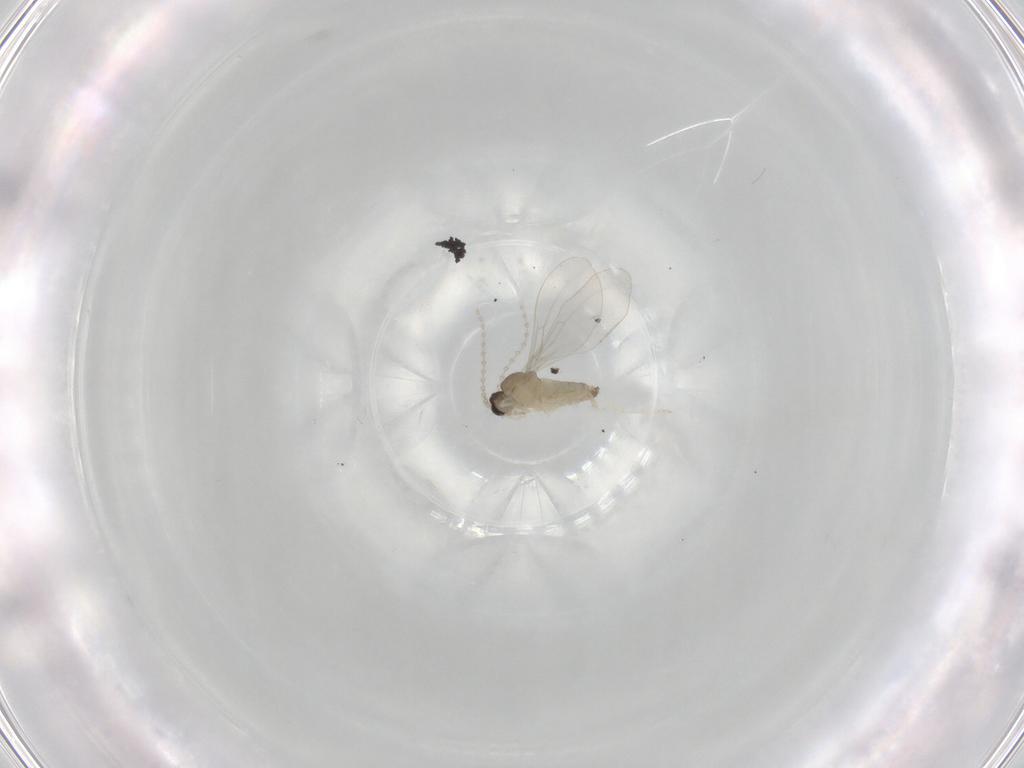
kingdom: Animalia
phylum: Arthropoda
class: Insecta
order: Diptera
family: Cecidomyiidae
